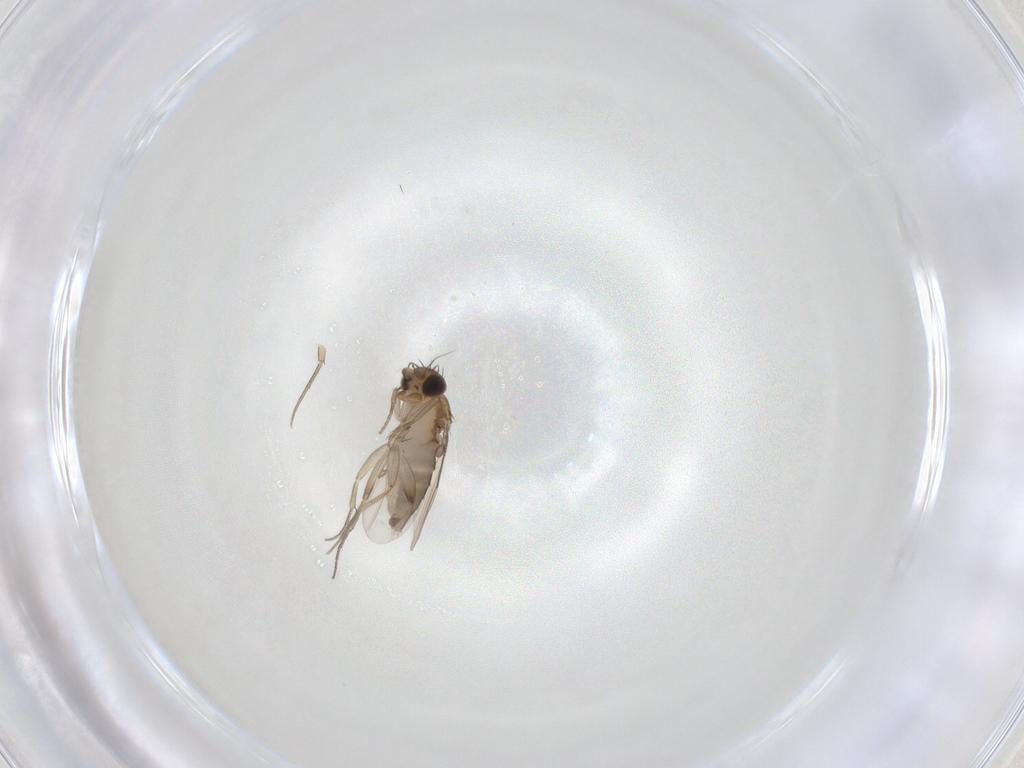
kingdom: Animalia
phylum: Arthropoda
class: Insecta
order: Diptera
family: Phoridae
